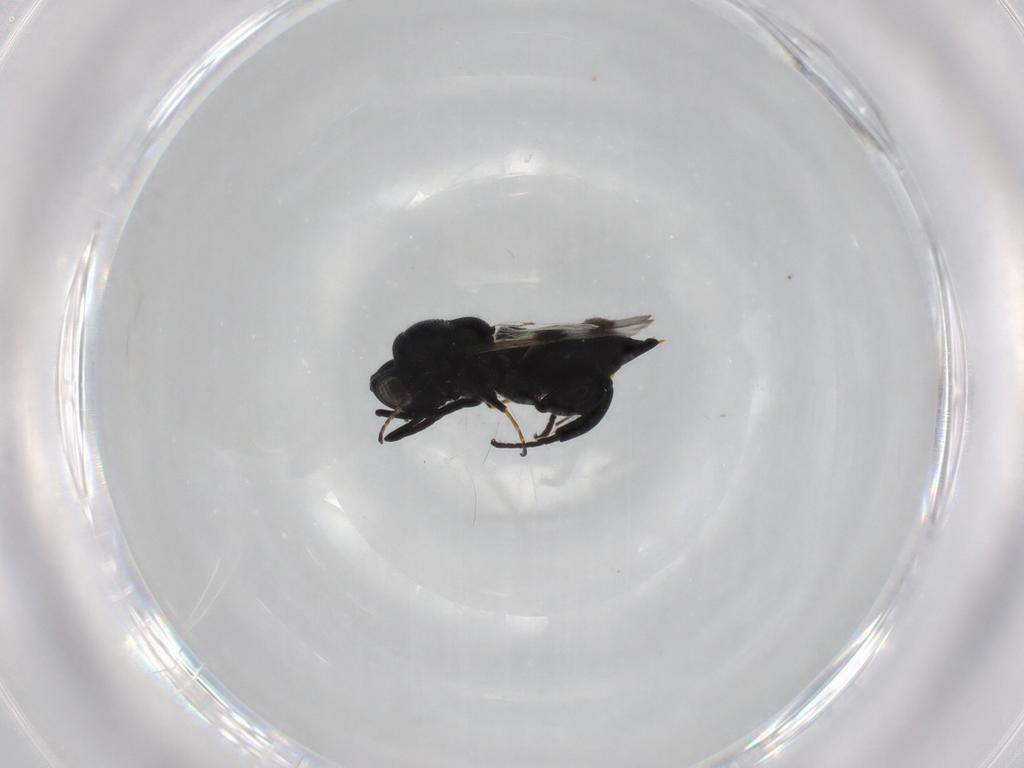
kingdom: Animalia
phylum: Arthropoda
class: Insecta
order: Hymenoptera
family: Chalcididae
